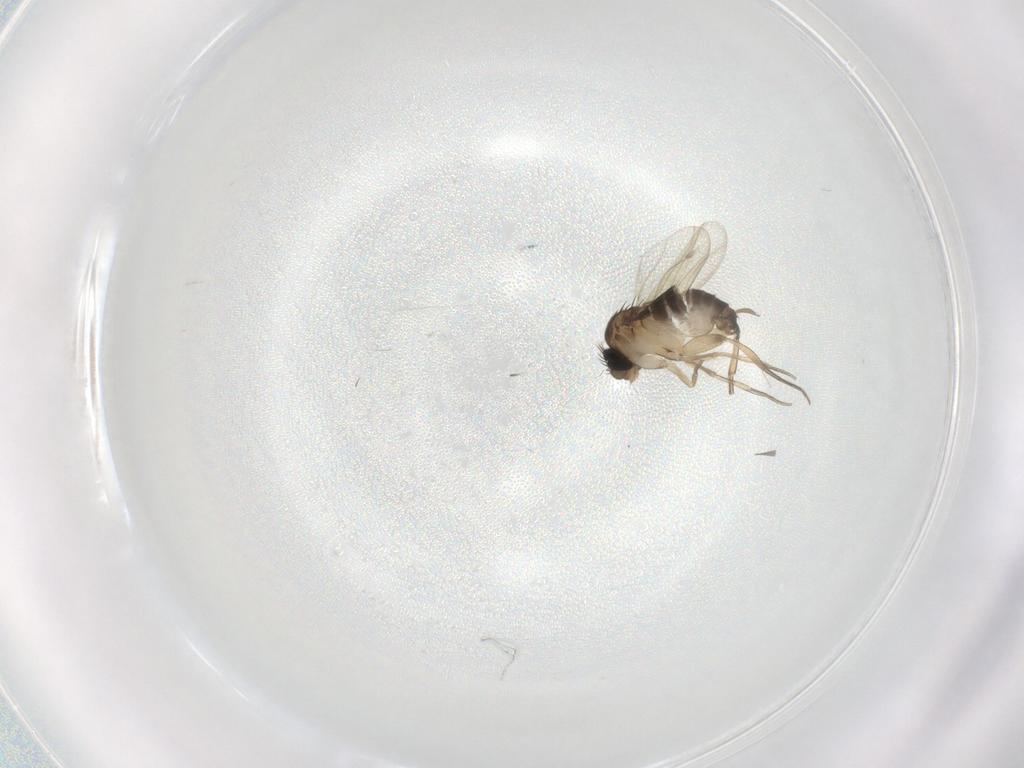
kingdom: Animalia
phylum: Arthropoda
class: Insecta
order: Diptera
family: Phoridae
